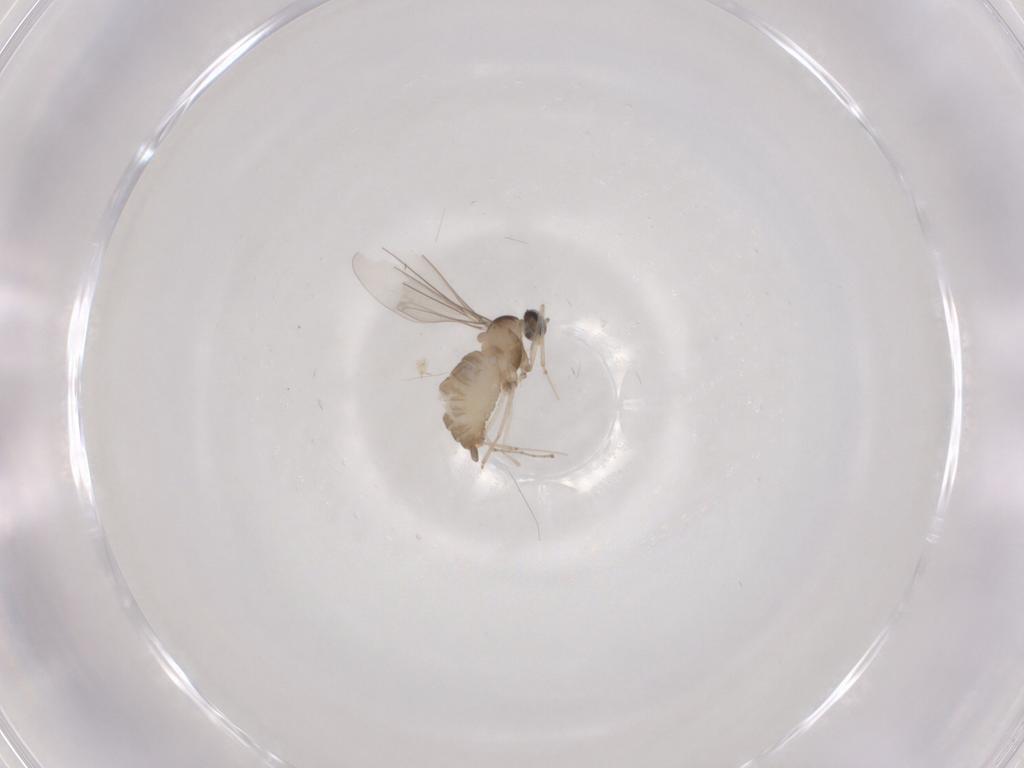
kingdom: Animalia
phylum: Arthropoda
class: Insecta
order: Diptera
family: Cecidomyiidae
